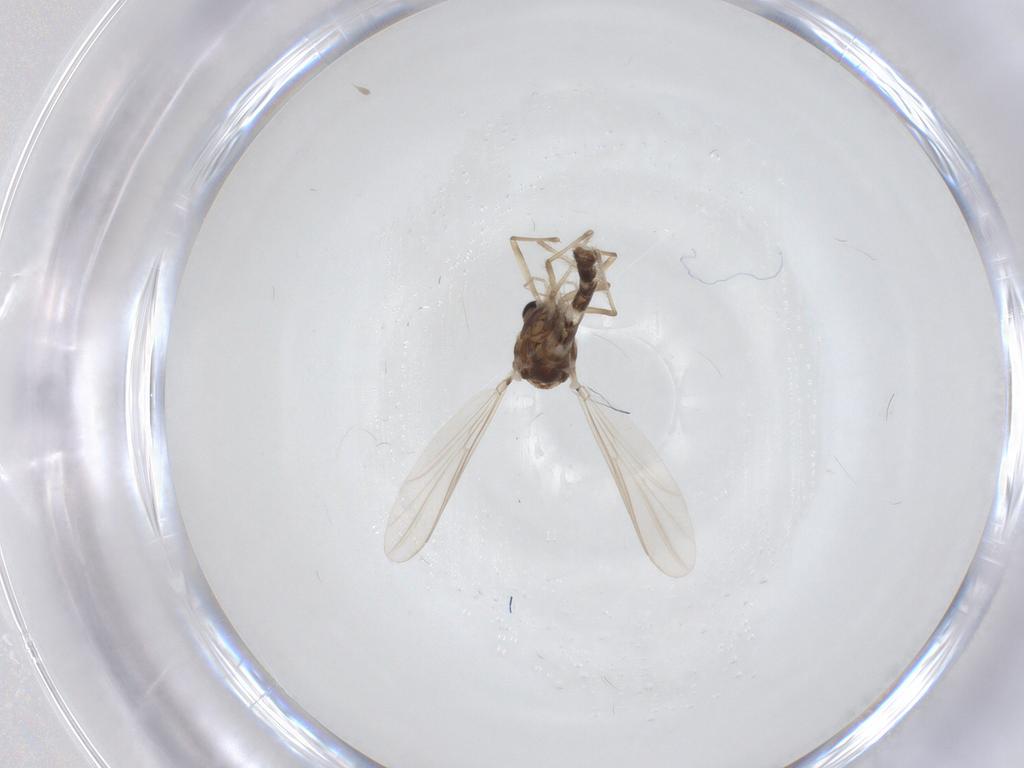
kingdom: Animalia
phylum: Arthropoda
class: Insecta
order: Diptera
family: Chironomidae
